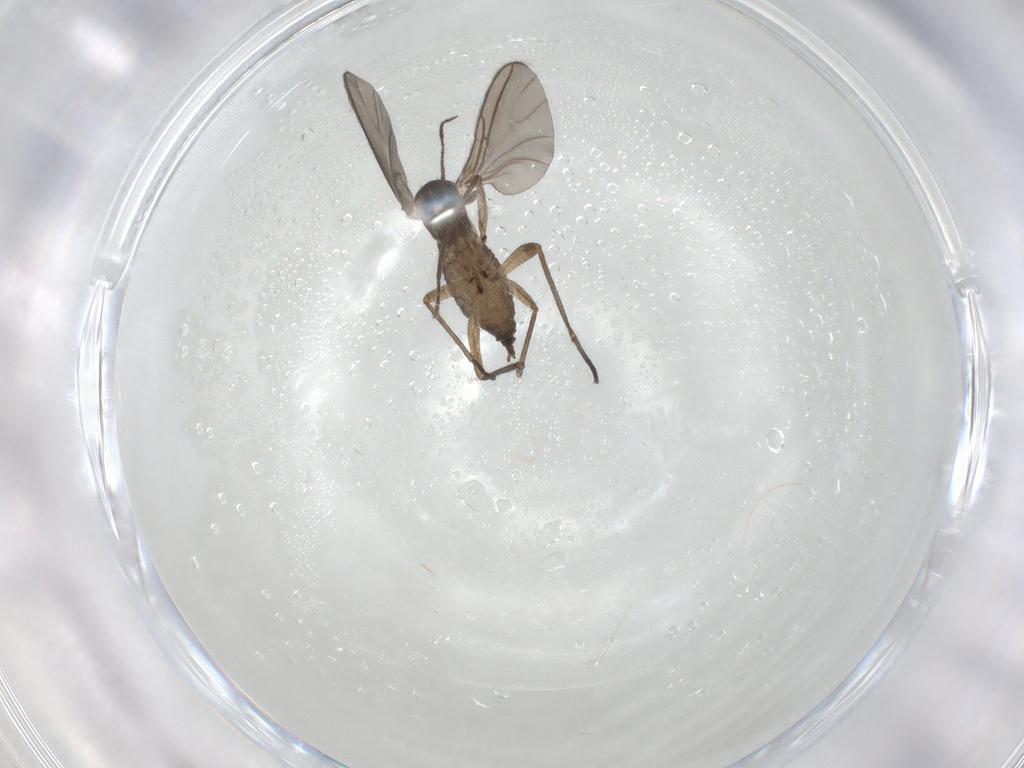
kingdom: Animalia
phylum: Arthropoda
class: Insecta
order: Diptera
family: Sciaridae
